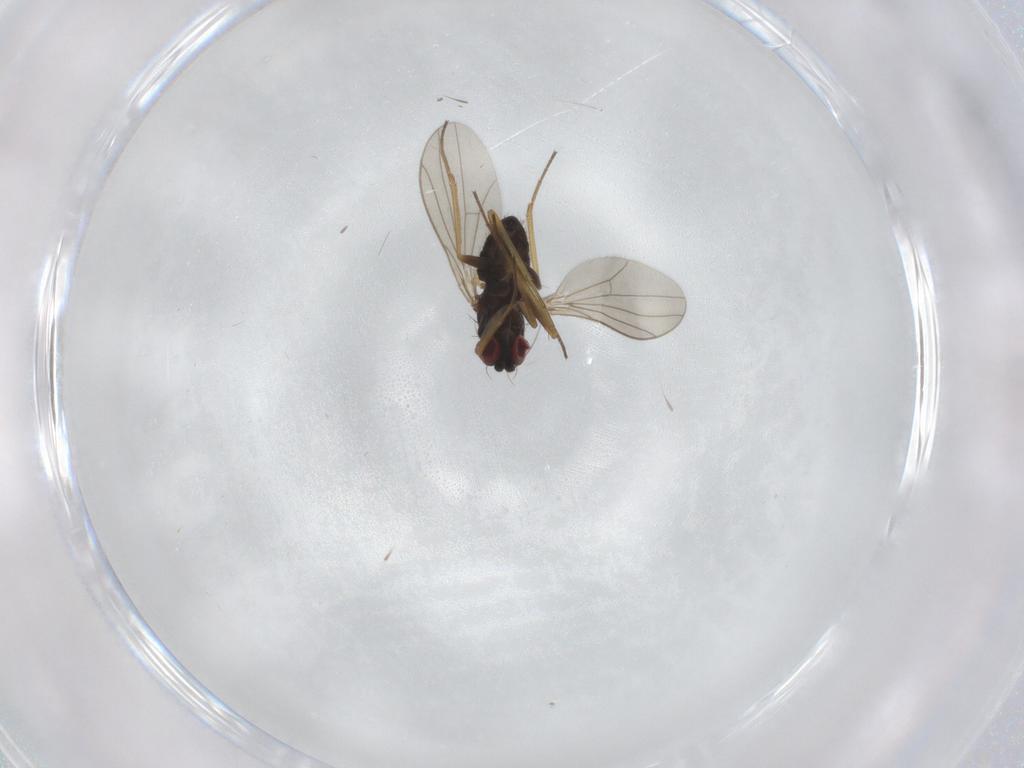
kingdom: Animalia
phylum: Arthropoda
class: Insecta
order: Diptera
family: Dolichopodidae
